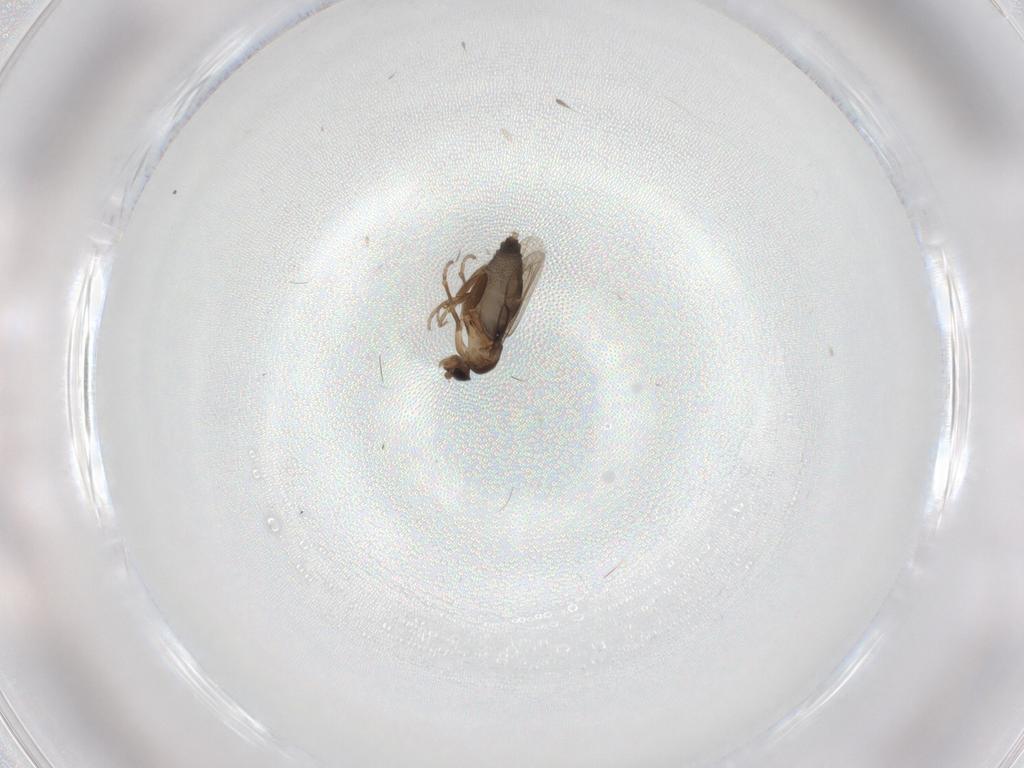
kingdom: Animalia
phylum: Arthropoda
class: Insecta
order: Diptera
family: Phoridae
